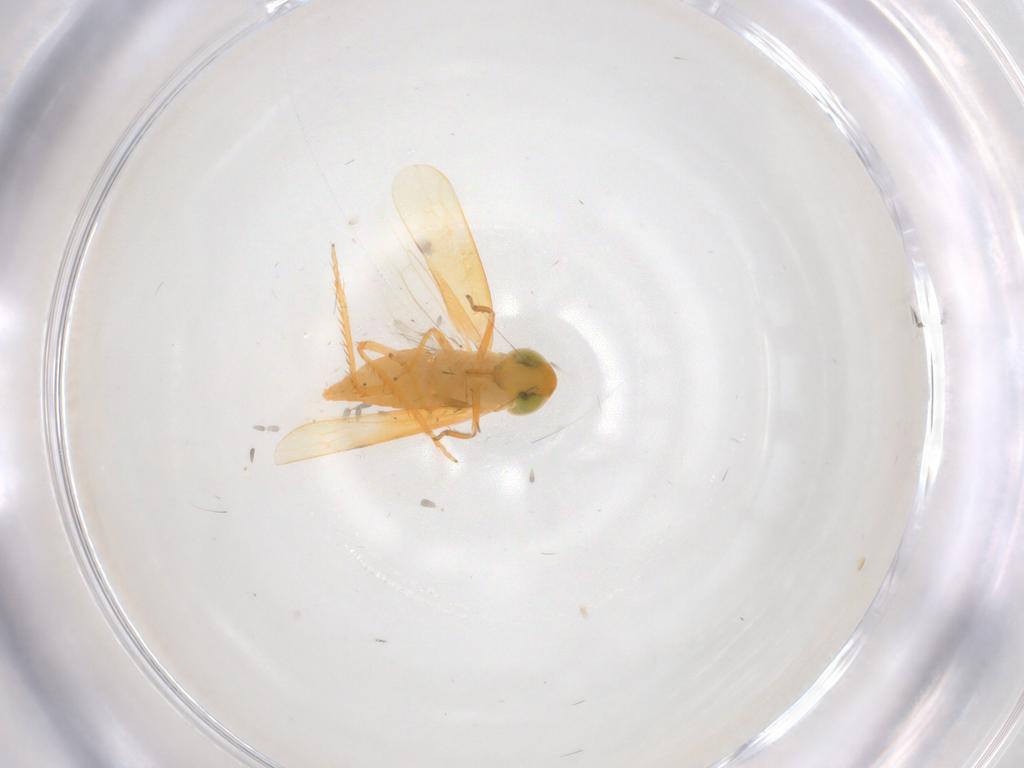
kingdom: Animalia
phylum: Arthropoda
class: Insecta
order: Hemiptera
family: Cicadellidae
